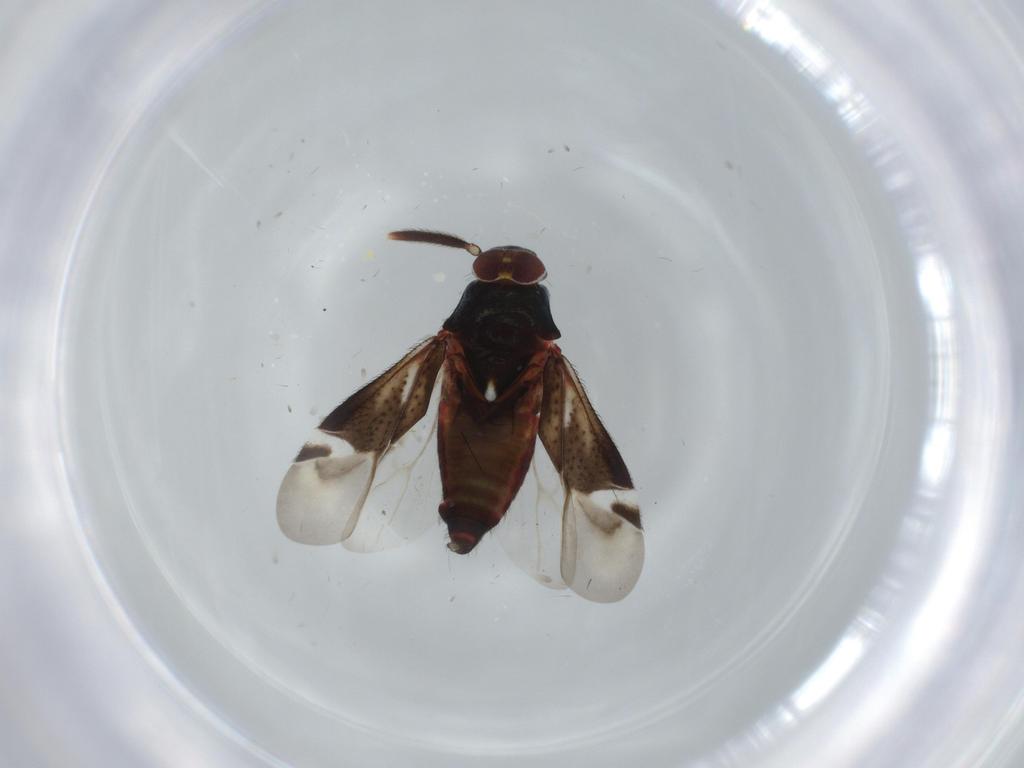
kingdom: Animalia
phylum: Arthropoda
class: Insecta
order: Hemiptera
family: Miridae
